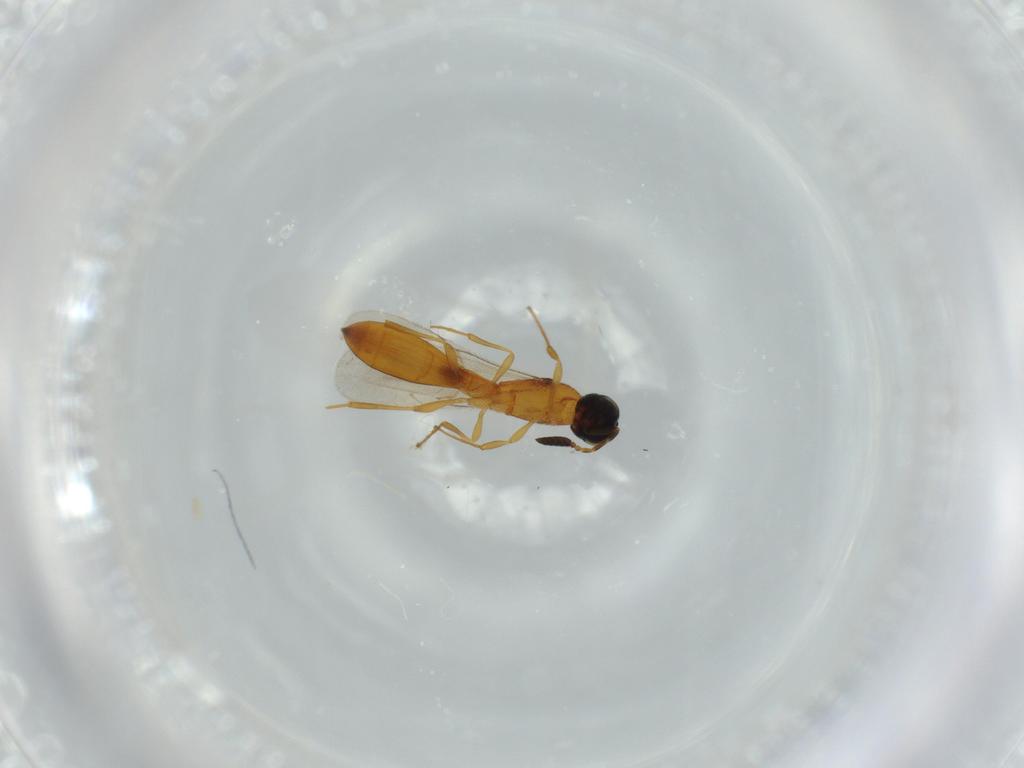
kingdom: Animalia
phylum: Arthropoda
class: Insecta
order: Hymenoptera
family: Scelionidae
